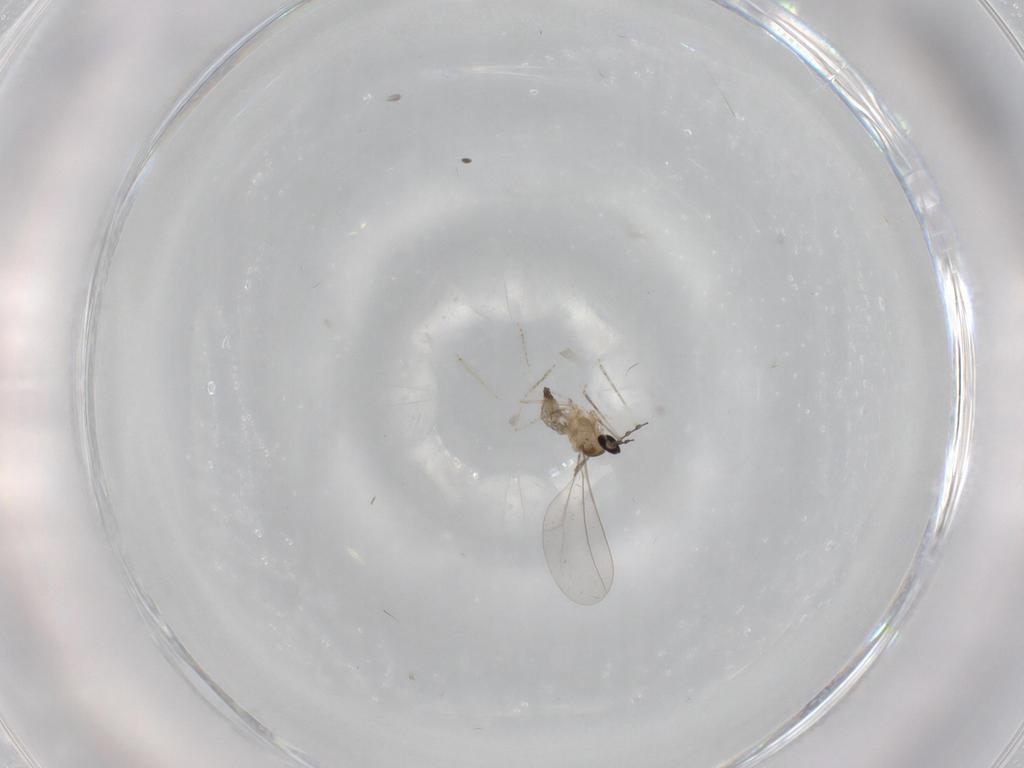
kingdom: Animalia
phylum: Arthropoda
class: Insecta
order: Diptera
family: Sciaridae
